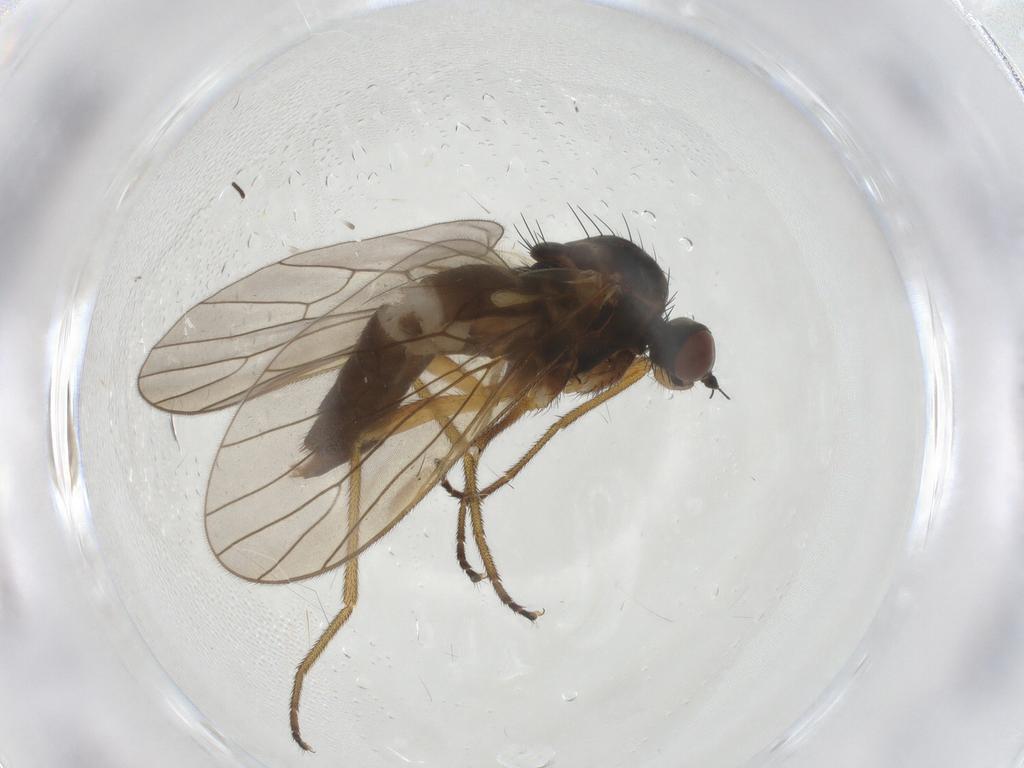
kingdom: Animalia
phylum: Arthropoda
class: Insecta
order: Diptera
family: Brachystomatidae
